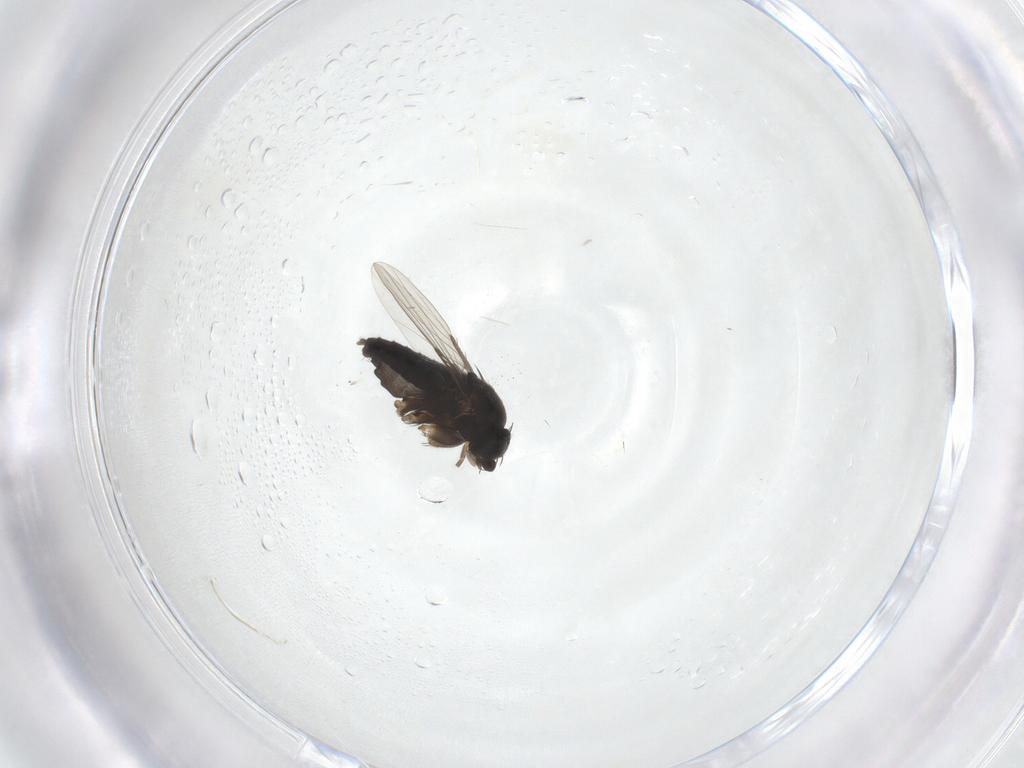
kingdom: Animalia
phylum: Arthropoda
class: Insecta
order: Diptera
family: Phoridae
